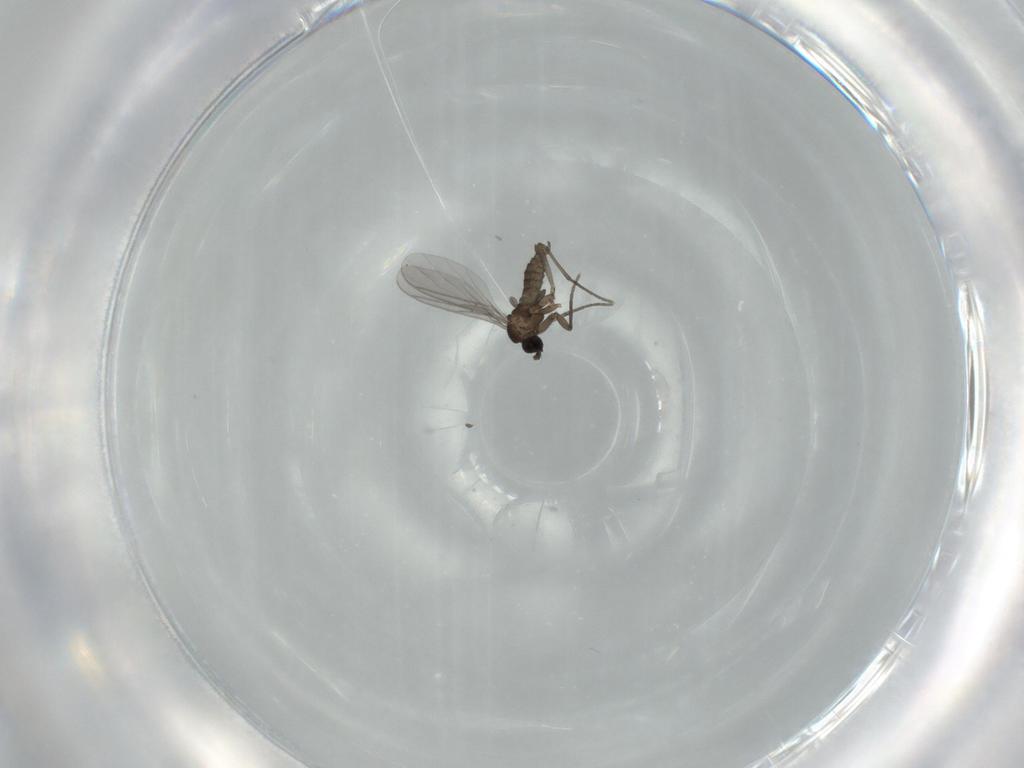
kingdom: Animalia
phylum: Arthropoda
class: Insecta
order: Diptera
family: Sciaridae
